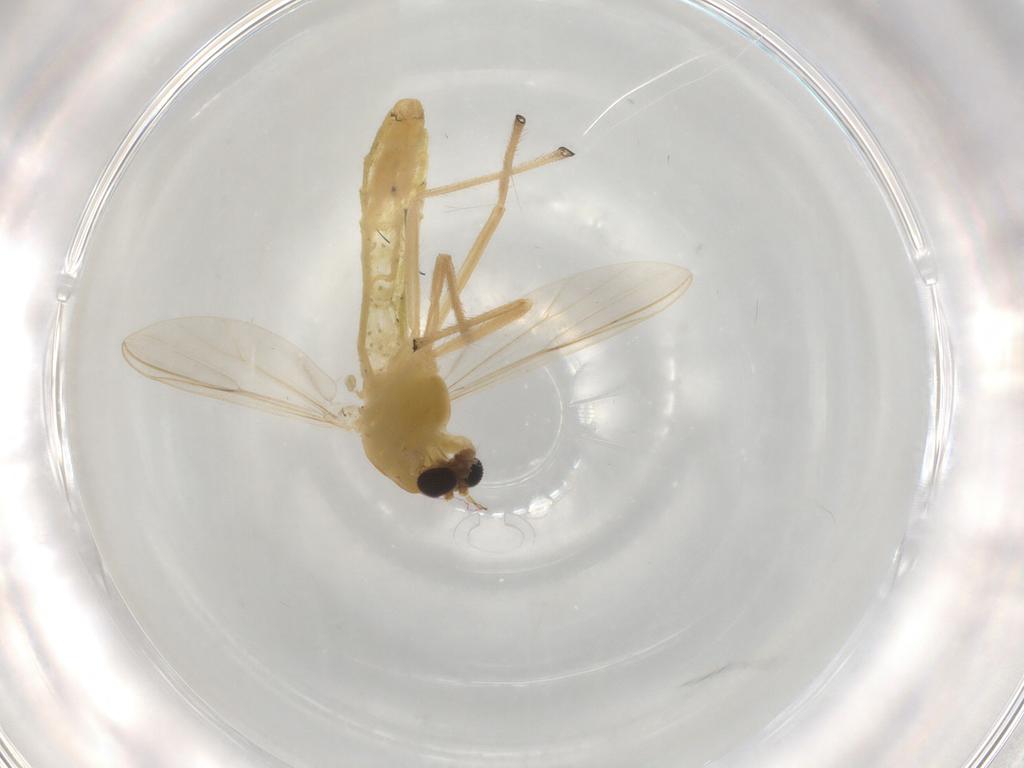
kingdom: Animalia
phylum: Arthropoda
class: Insecta
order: Diptera
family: Chironomidae
